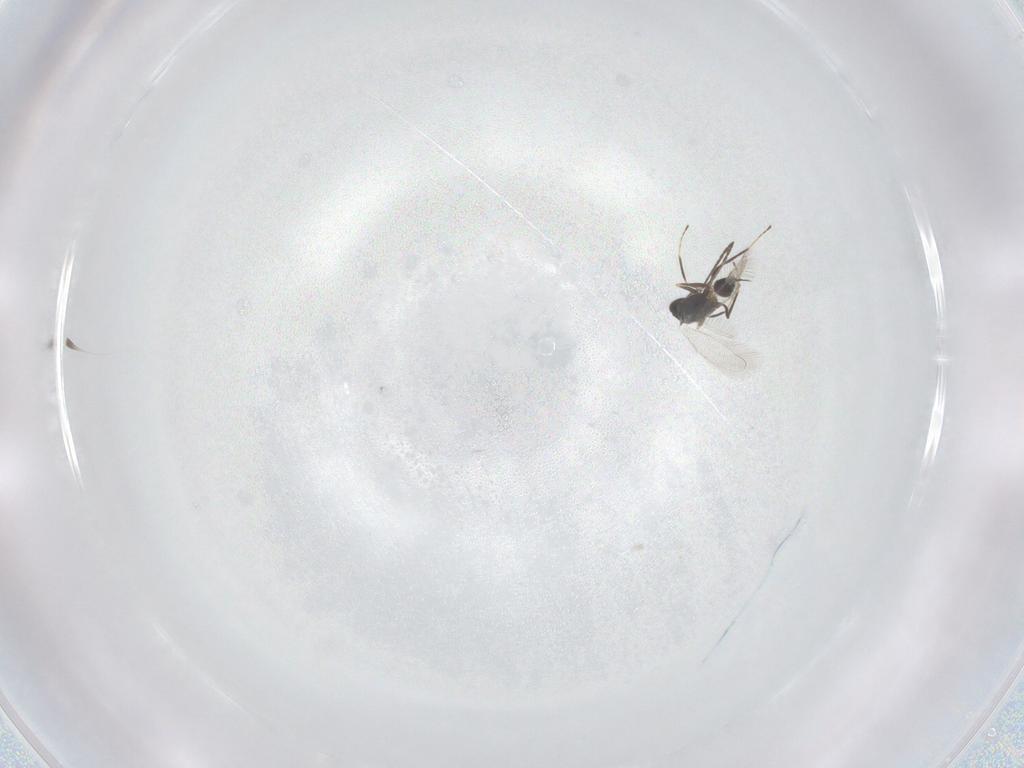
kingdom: Animalia
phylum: Arthropoda
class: Insecta
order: Hymenoptera
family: Mymaridae
